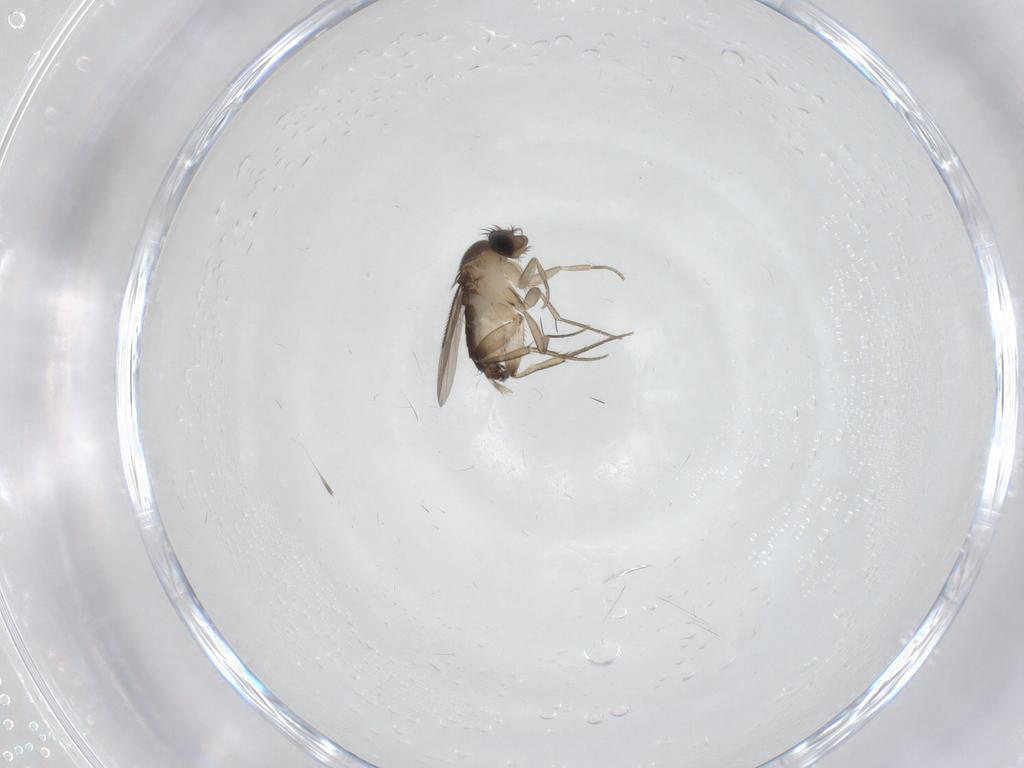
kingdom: Animalia
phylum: Arthropoda
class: Insecta
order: Diptera
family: Phoridae
